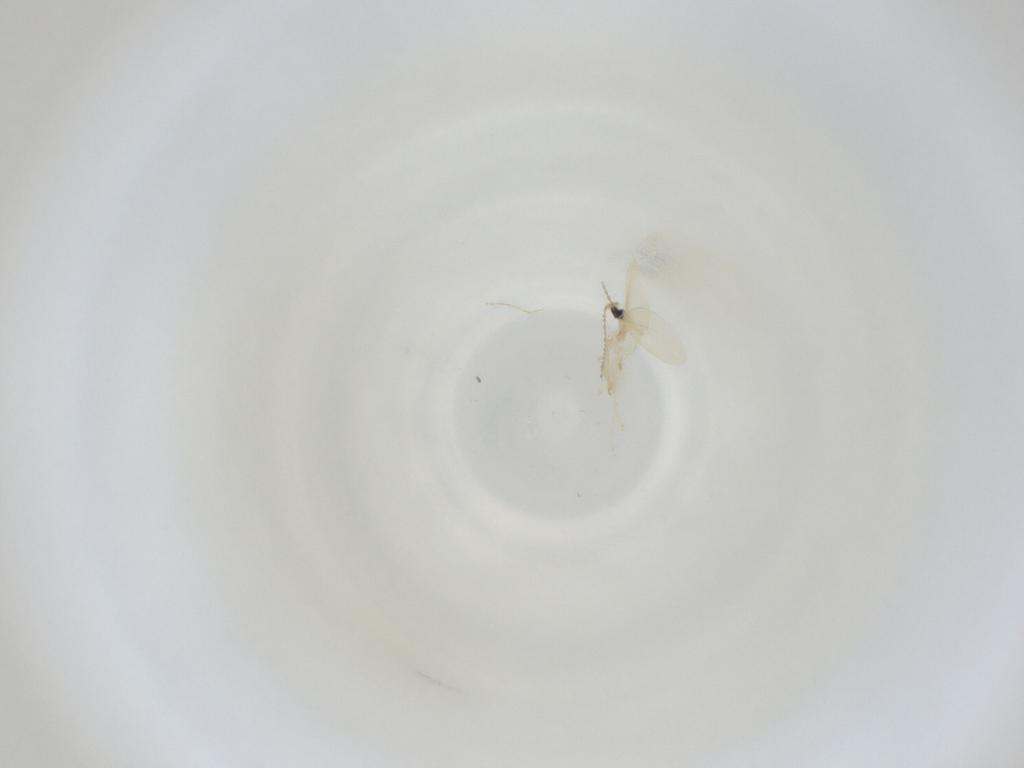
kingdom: Animalia
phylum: Arthropoda
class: Insecta
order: Diptera
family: Cecidomyiidae
